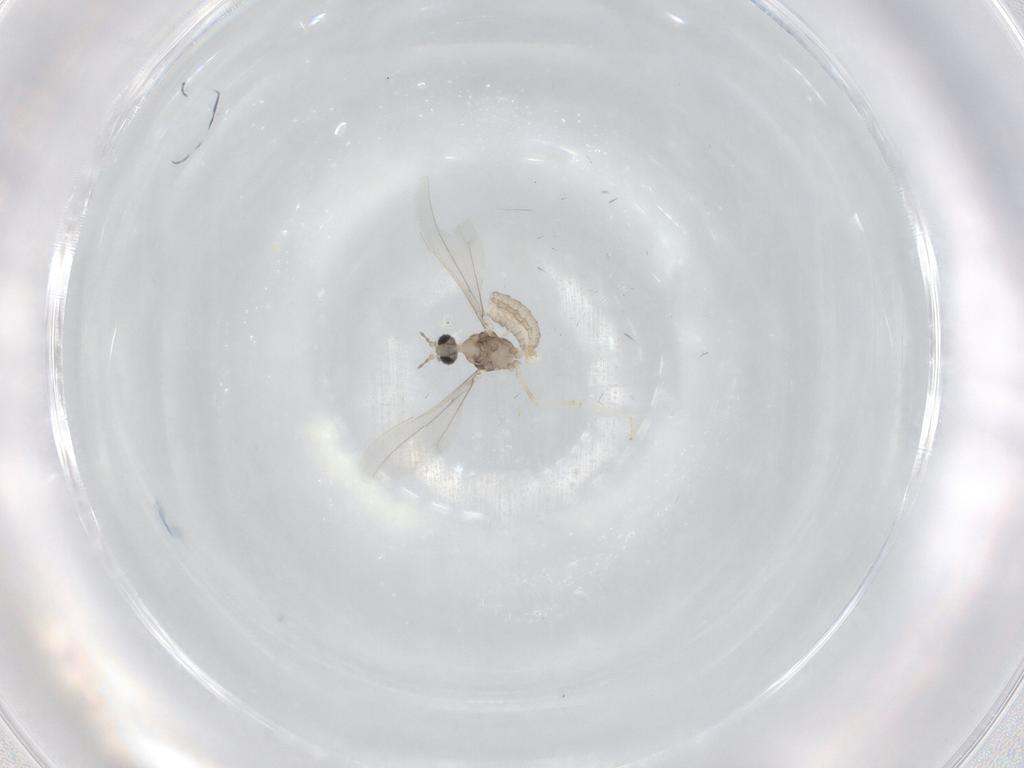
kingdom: Animalia
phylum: Arthropoda
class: Insecta
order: Diptera
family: Cecidomyiidae
